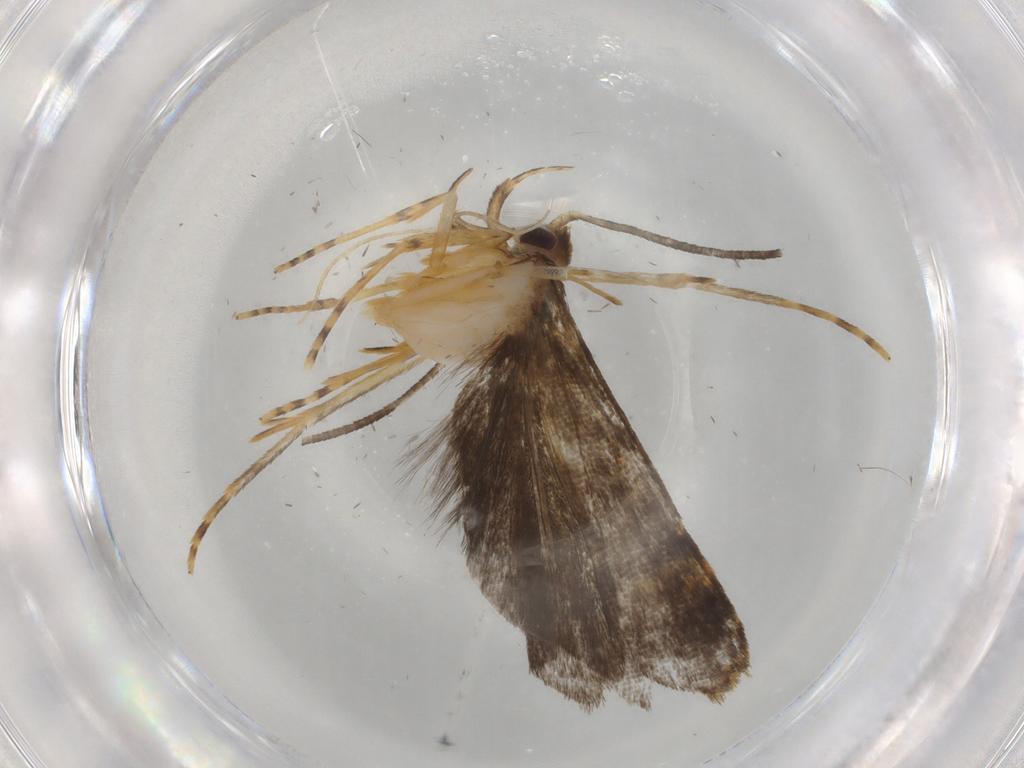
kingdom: Animalia
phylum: Arthropoda
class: Insecta
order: Lepidoptera
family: Cosmopterigidae
